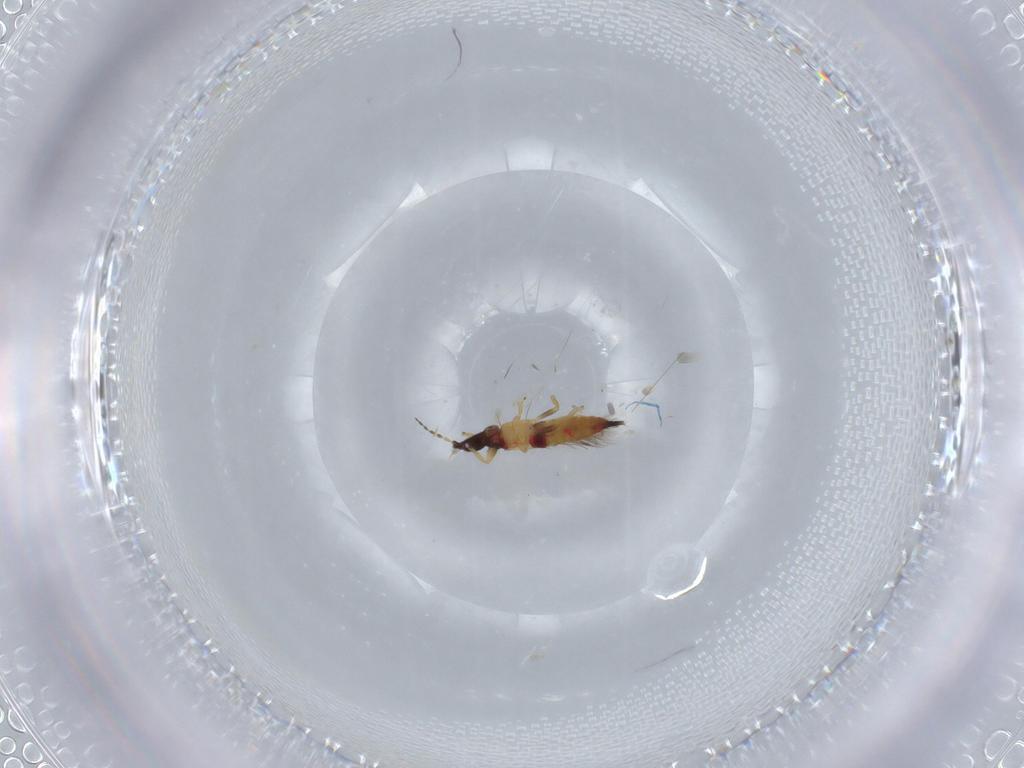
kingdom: Animalia
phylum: Arthropoda
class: Insecta
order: Thysanoptera
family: Phlaeothripidae
